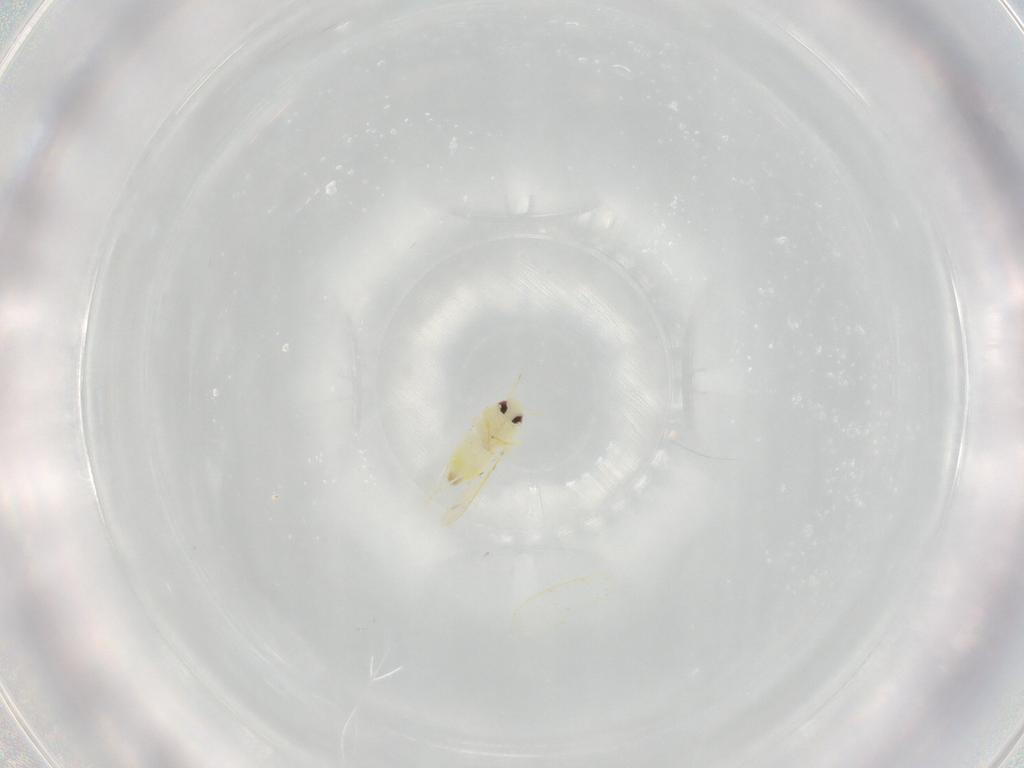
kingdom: Animalia
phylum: Arthropoda
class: Insecta
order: Hemiptera
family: Aleyrodidae
